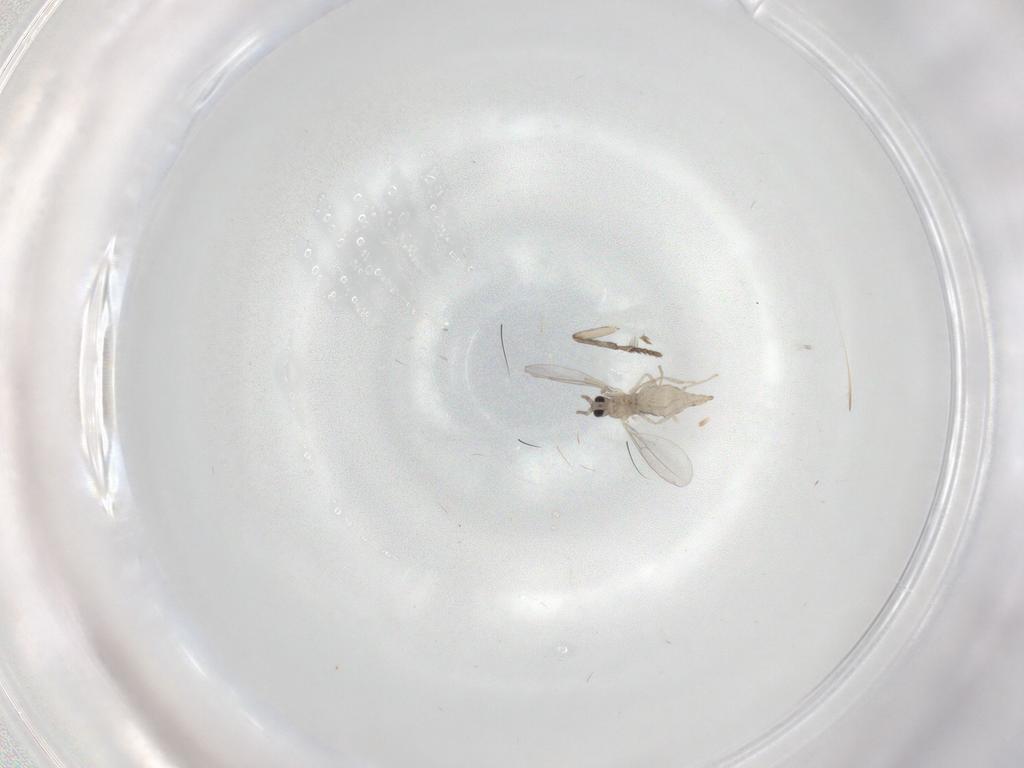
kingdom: Animalia
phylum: Arthropoda
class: Insecta
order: Diptera
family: Cecidomyiidae
